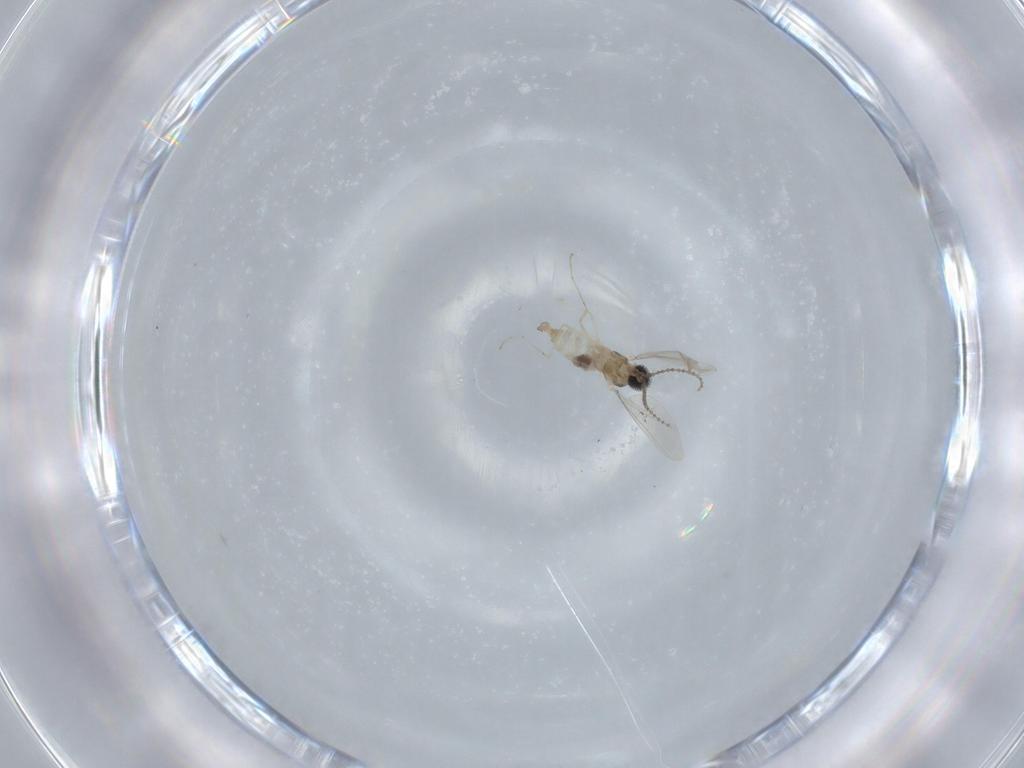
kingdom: Animalia
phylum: Arthropoda
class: Insecta
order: Diptera
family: Cecidomyiidae
